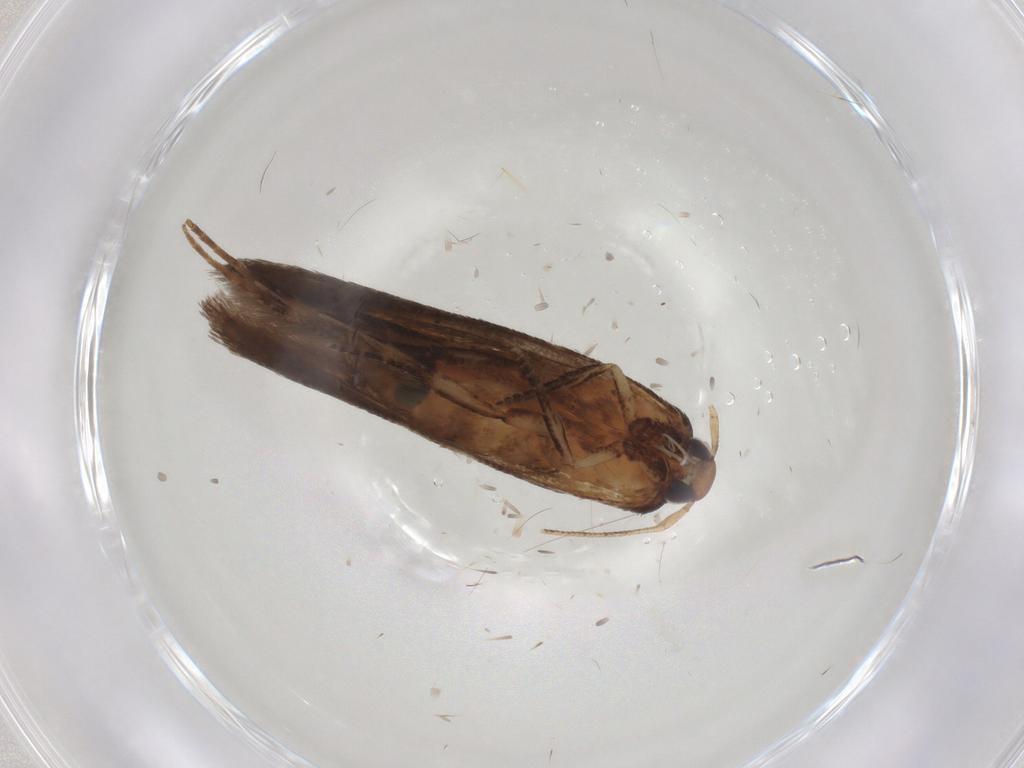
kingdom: Animalia
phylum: Arthropoda
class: Insecta
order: Lepidoptera
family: Cosmopterigidae
